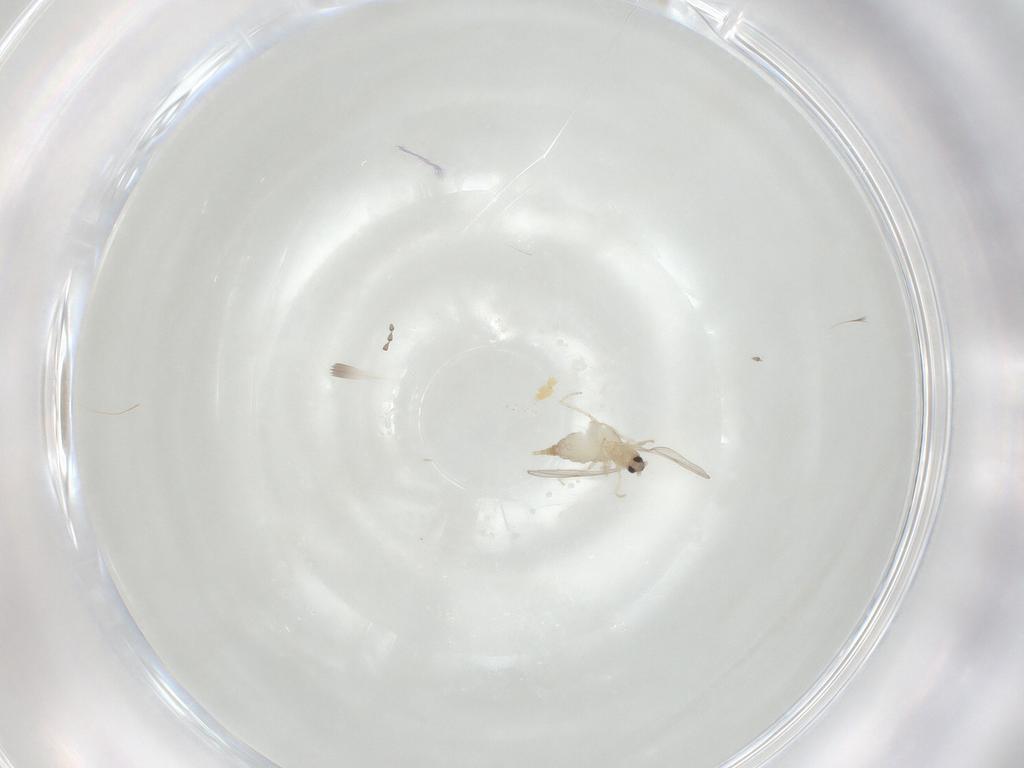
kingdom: Animalia
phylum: Arthropoda
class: Insecta
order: Diptera
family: Cecidomyiidae
